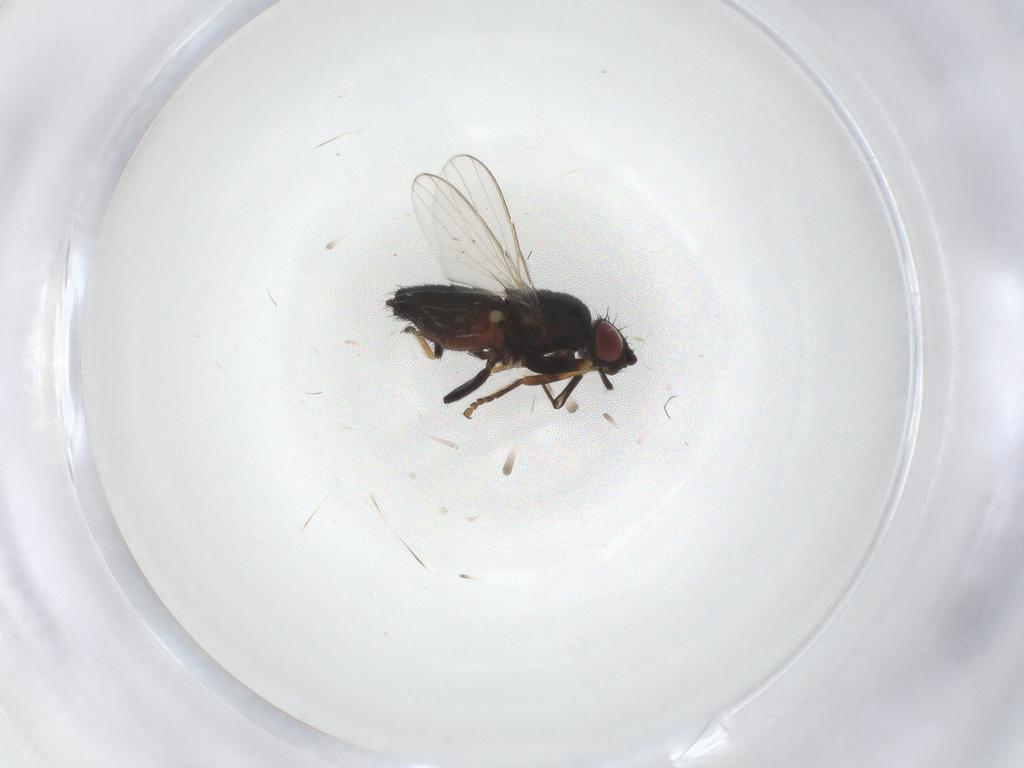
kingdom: Animalia
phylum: Arthropoda
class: Insecta
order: Diptera
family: Milichiidae
